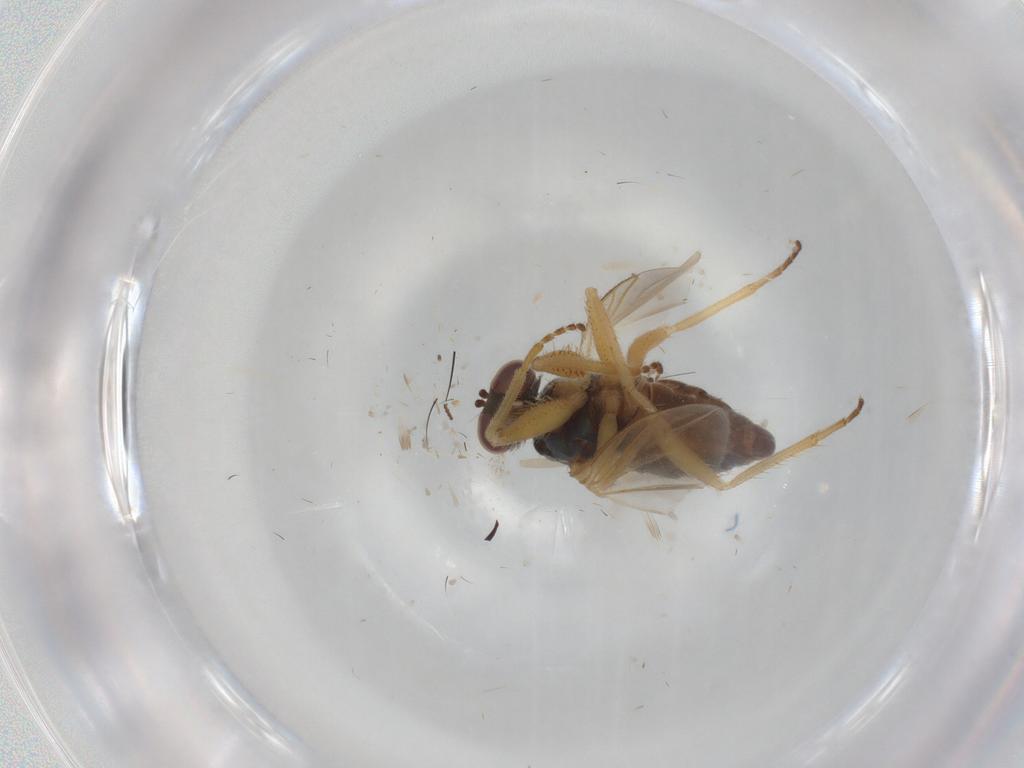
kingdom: Animalia
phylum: Arthropoda
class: Insecta
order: Diptera
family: Dolichopodidae
